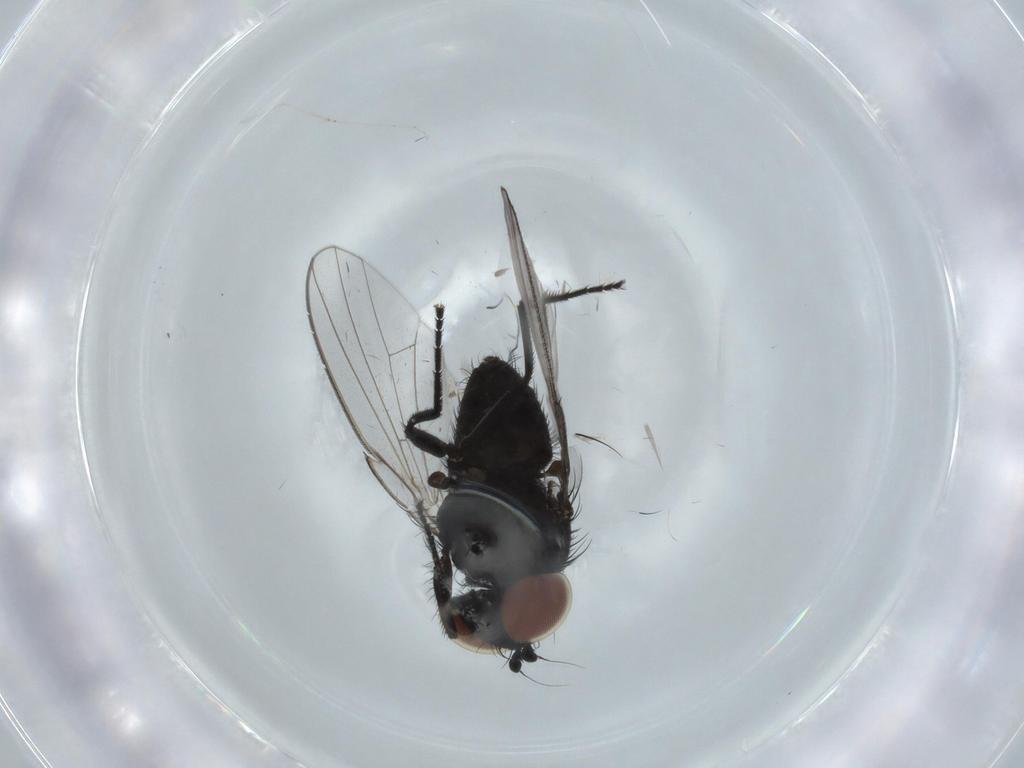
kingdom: Animalia
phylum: Arthropoda
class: Insecta
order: Diptera
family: Milichiidae
